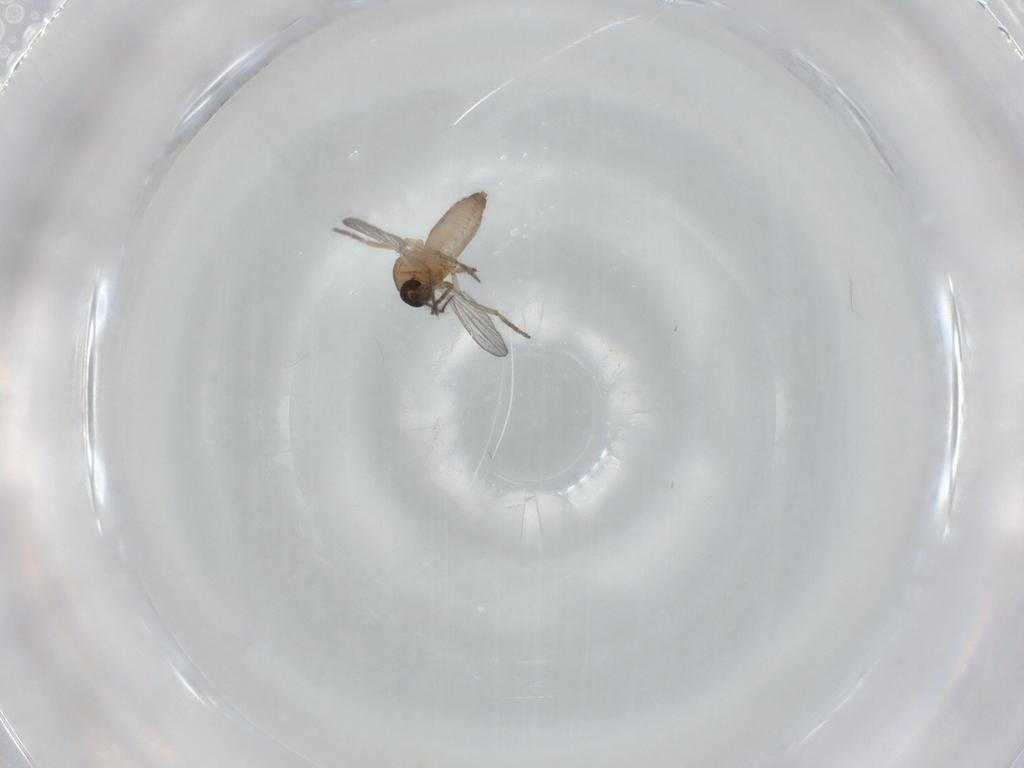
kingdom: Animalia
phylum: Arthropoda
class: Insecta
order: Diptera
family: Micropezidae
